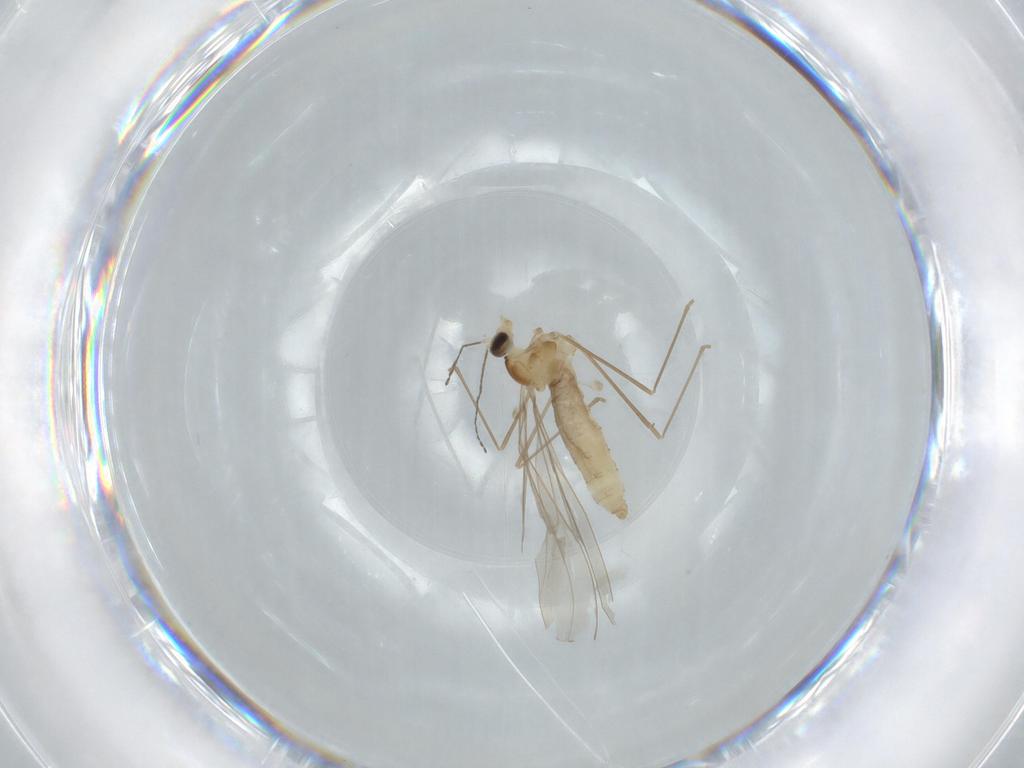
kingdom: Animalia
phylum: Arthropoda
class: Insecta
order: Diptera
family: Cecidomyiidae
